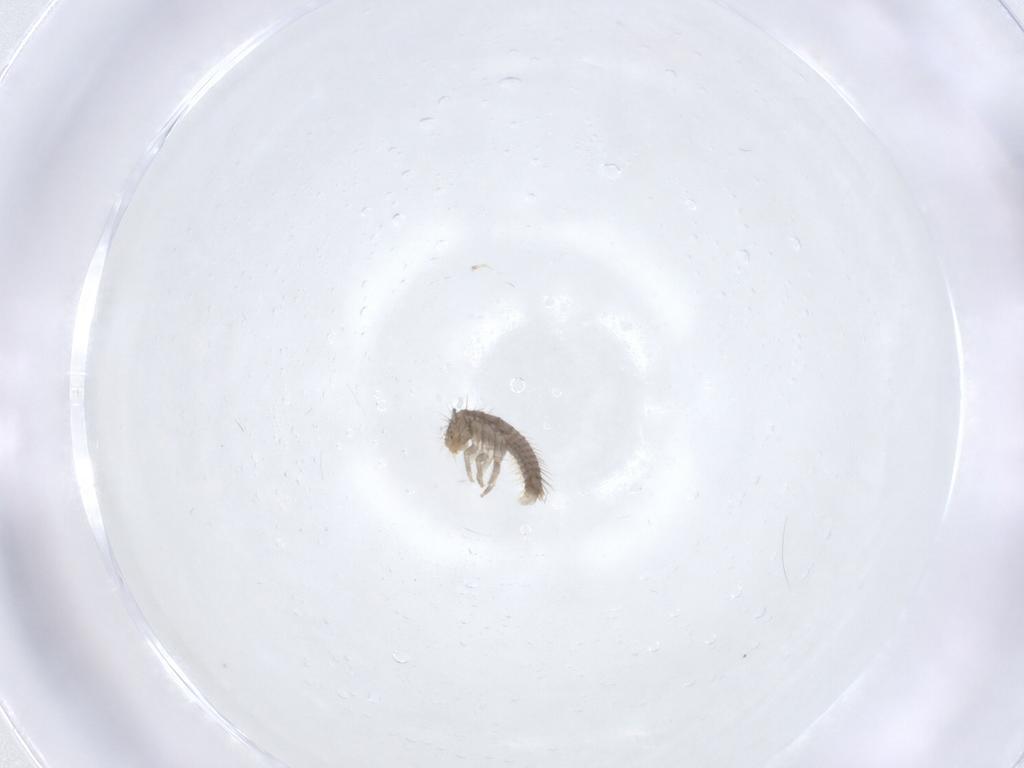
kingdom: Animalia
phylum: Arthropoda
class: Insecta
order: Coleoptera
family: Leiodidae
